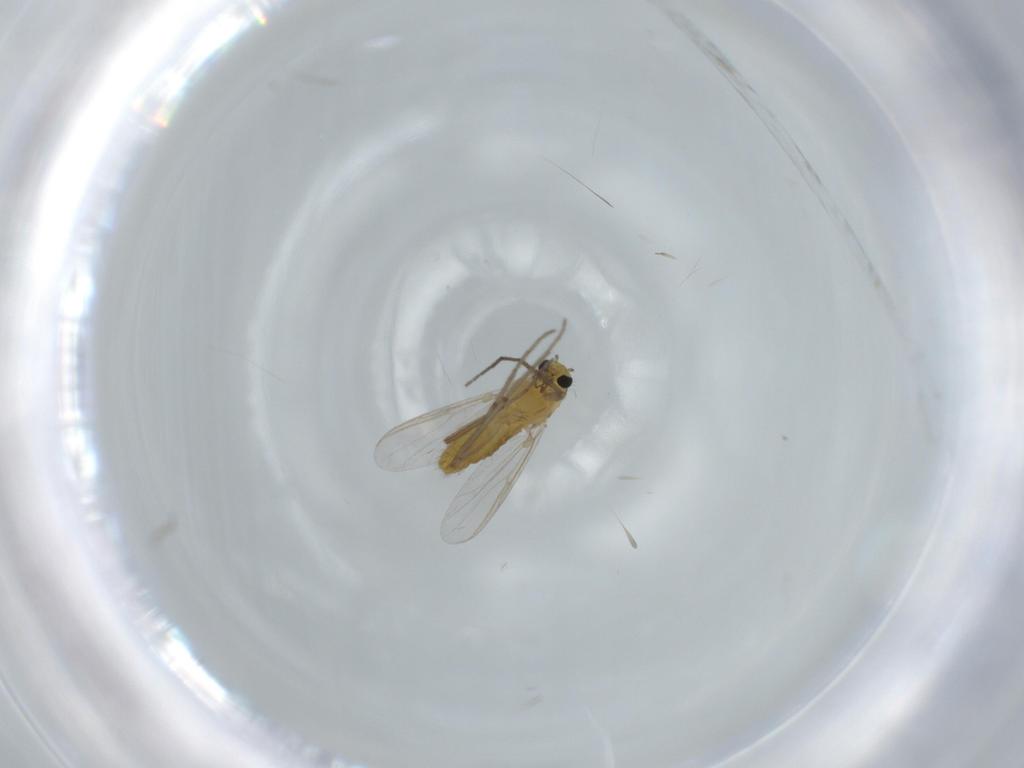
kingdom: Animalia
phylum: Arthropoda
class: Insecta
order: Diptera
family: Chironomidae
